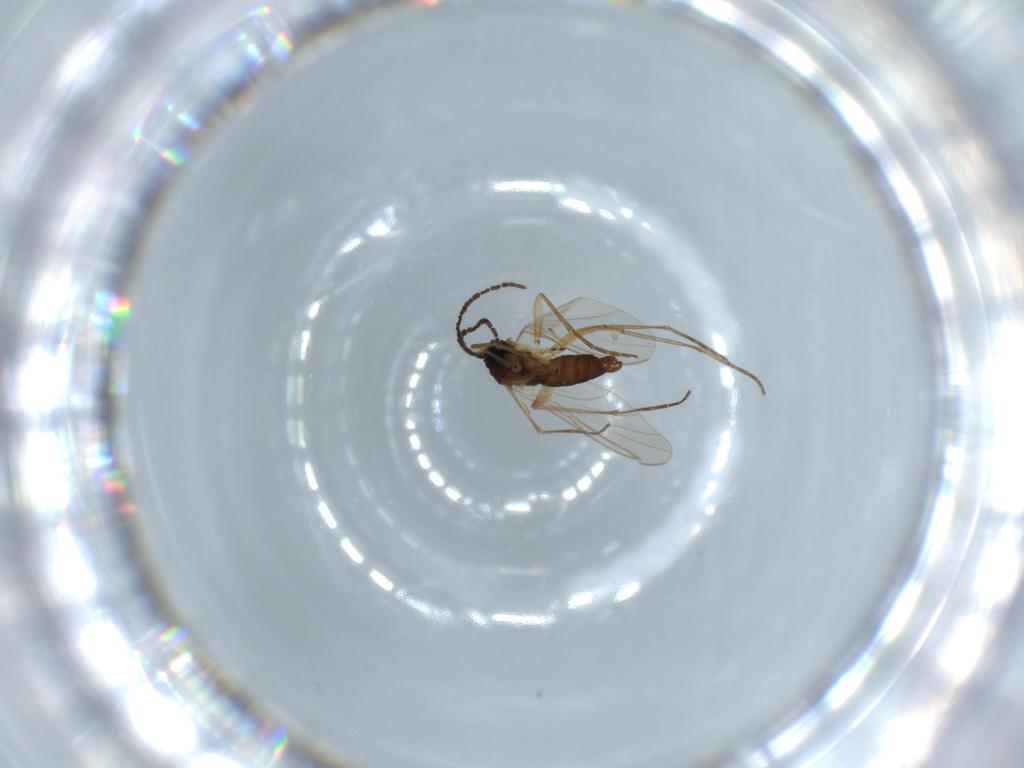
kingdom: Animalia
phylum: Arthropoda
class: Insecta
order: Diptera
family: Sciaridae
